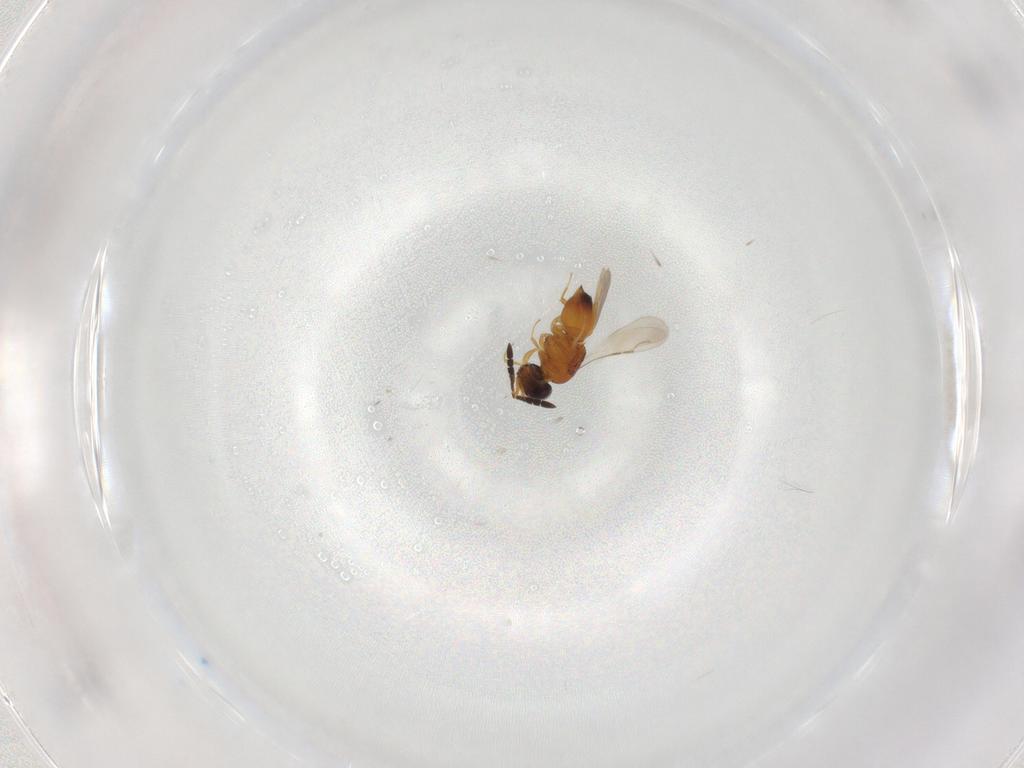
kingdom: Animalia
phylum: Arthropoda
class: Insecta
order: Hymenoptera
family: Ceraphronidae
